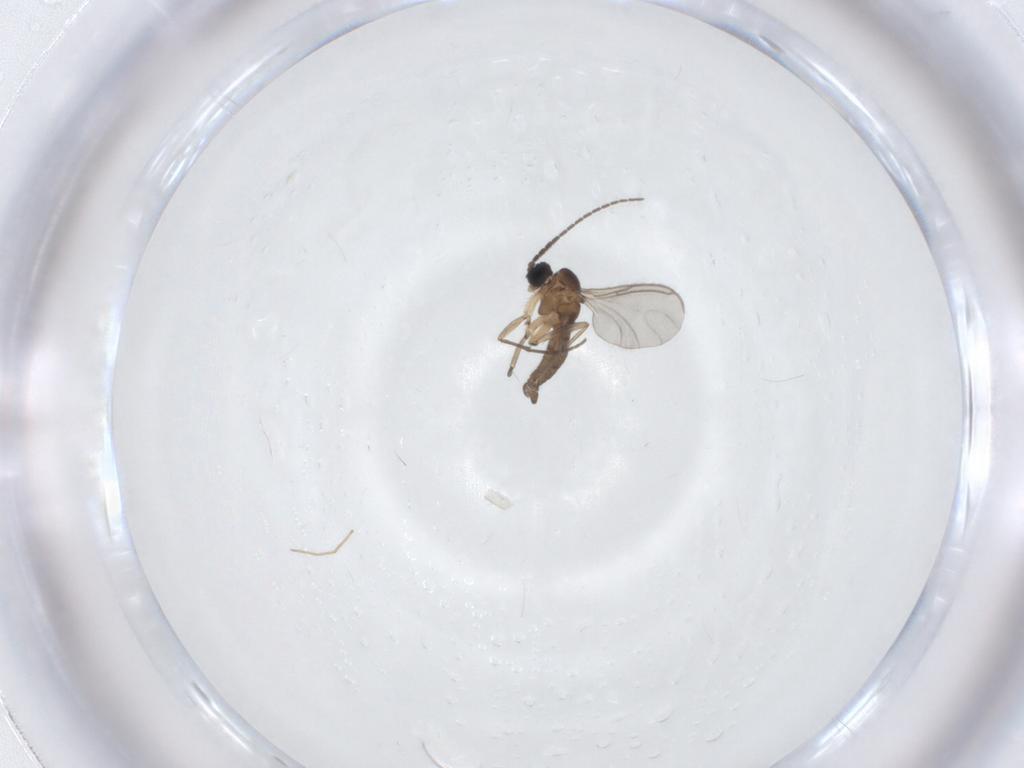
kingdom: Animalia
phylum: Arthropoda
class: Insecta
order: Diptera
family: Sciaridae
